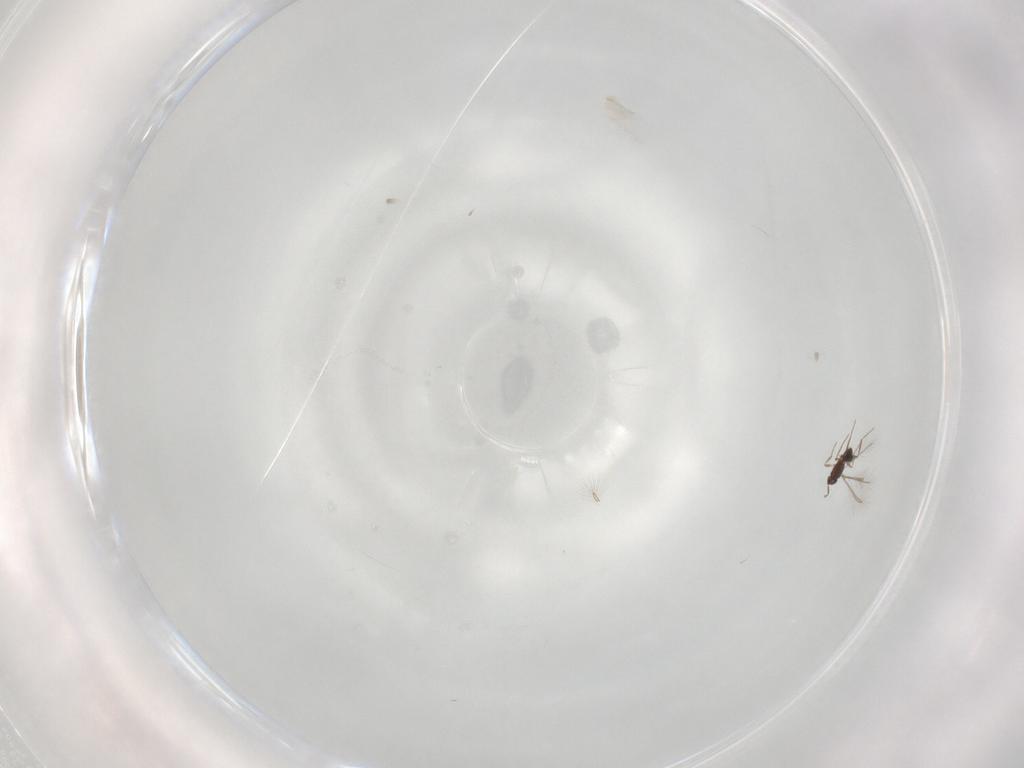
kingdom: Animalia
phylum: Arthropoda
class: Insecta
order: Hymenoptera
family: Mymaridae
